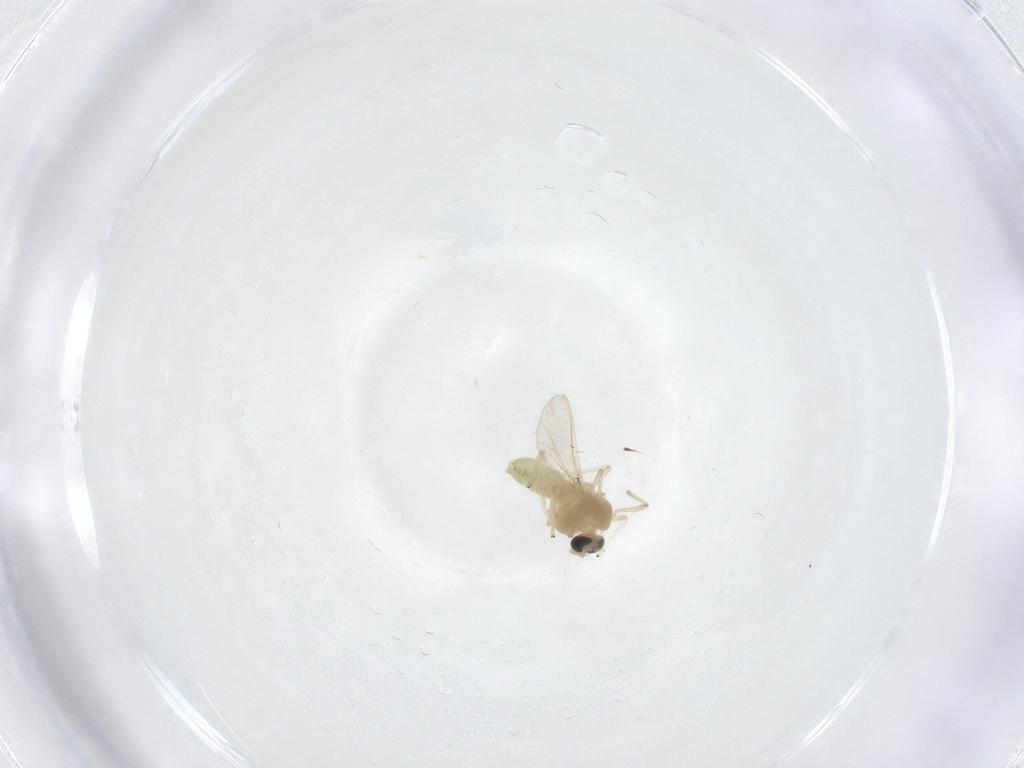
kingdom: Animalia
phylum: Arthropoda
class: Insecta
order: Diptera
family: Chironomidae
